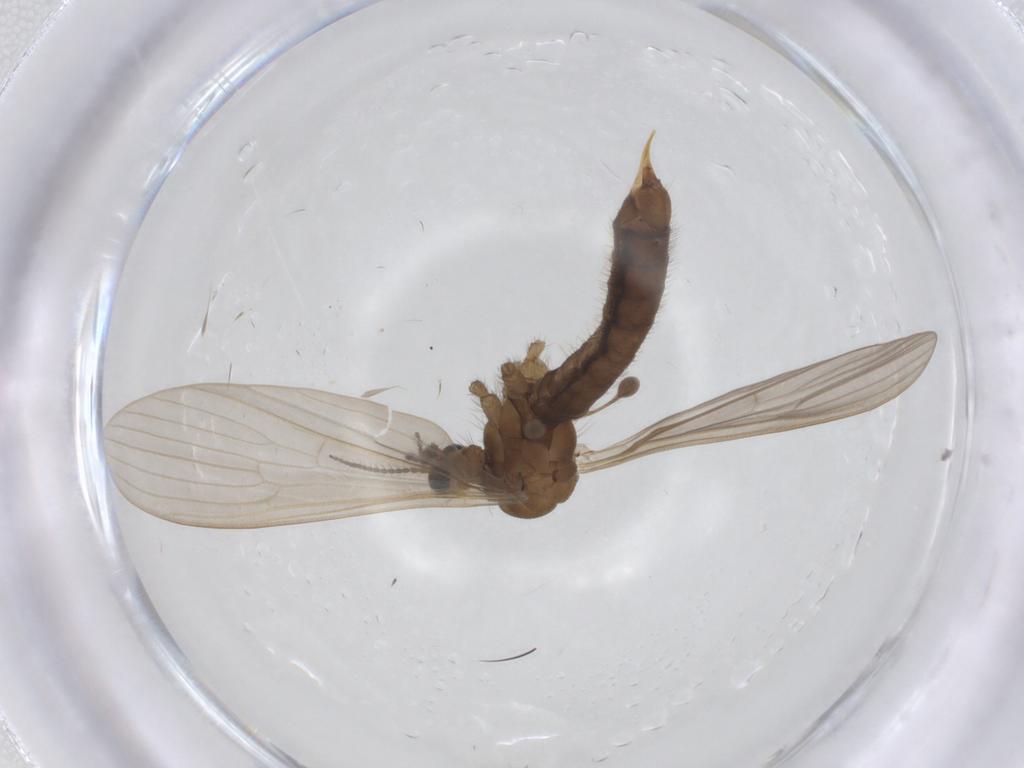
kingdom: Animalia
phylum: Arthropoda
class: Insecta
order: Diptera
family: Limoniidae
